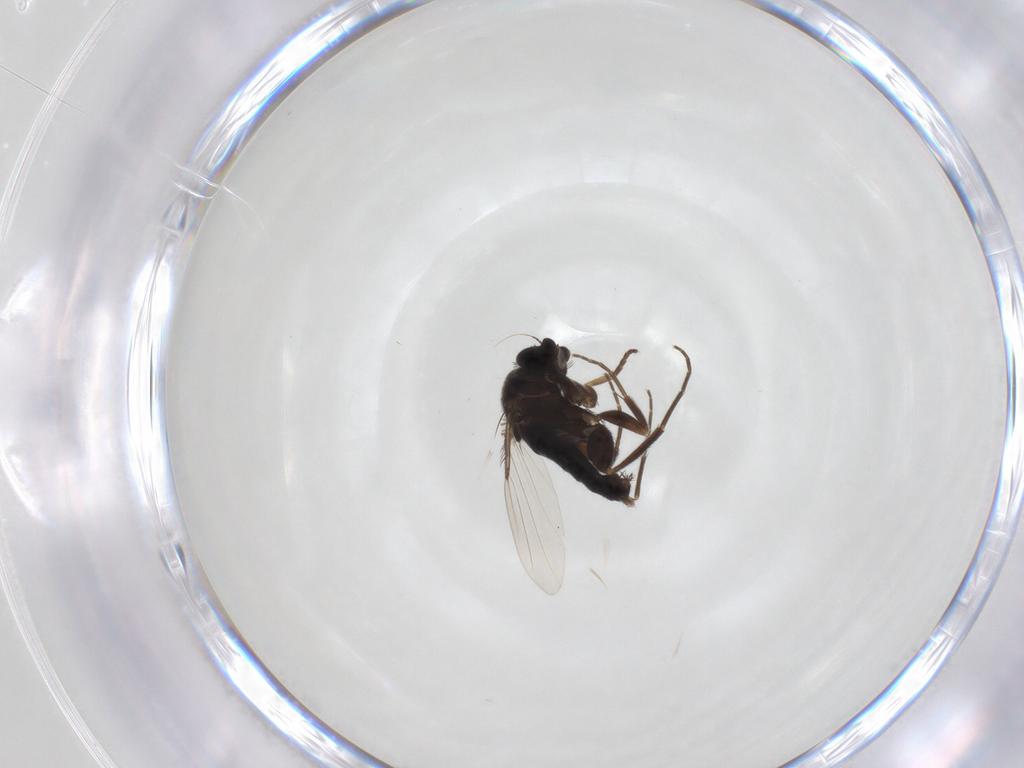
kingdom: Animalia
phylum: Arthropoda
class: Insecta
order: Diptera
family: Phoridae
